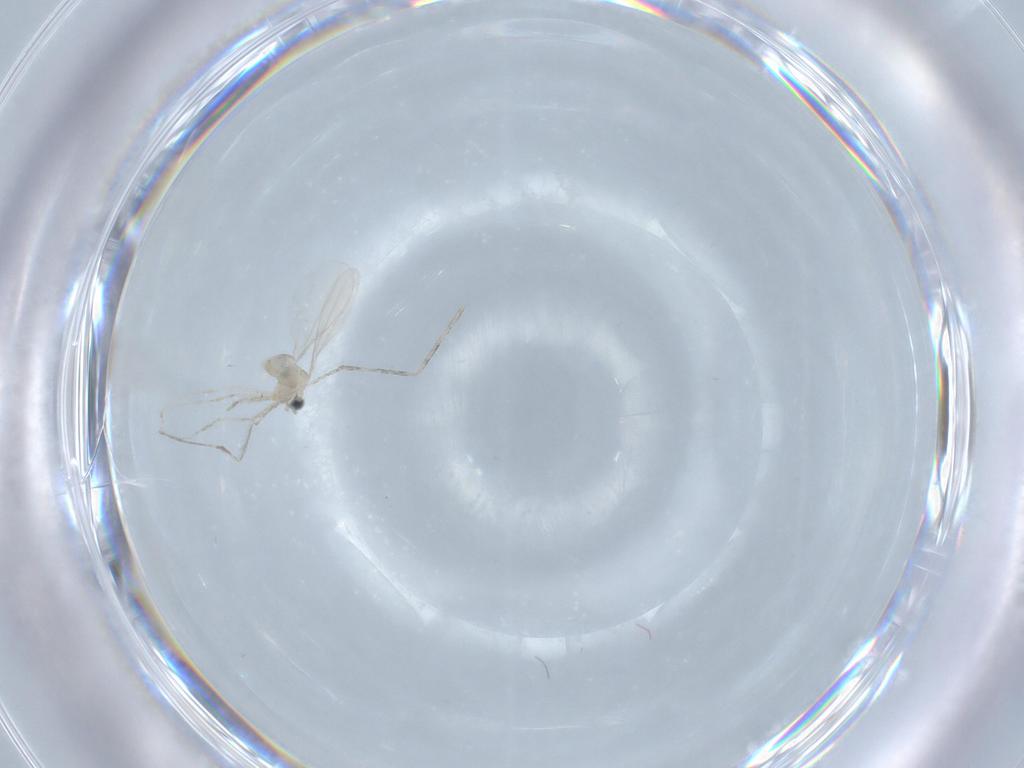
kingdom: Animalia
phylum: Arthropoda
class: Insecta
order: Diptera
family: Cecidomyiidae
